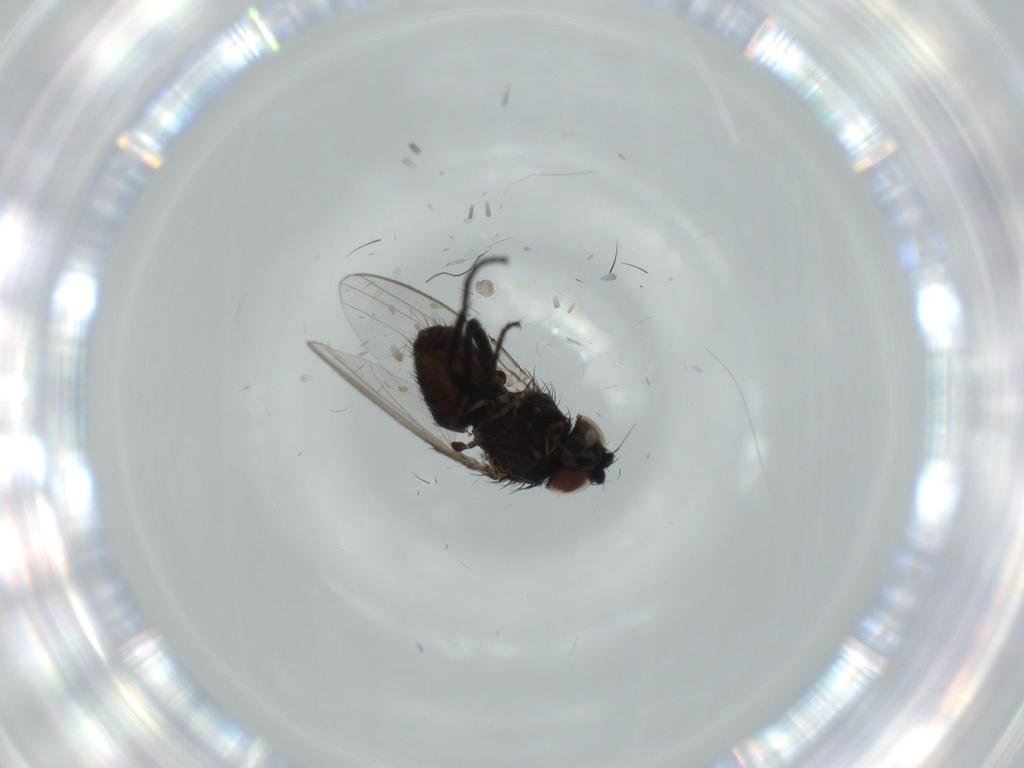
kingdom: Animalia
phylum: Arthropoda
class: Insecta
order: Diptera
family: Milichiidae
